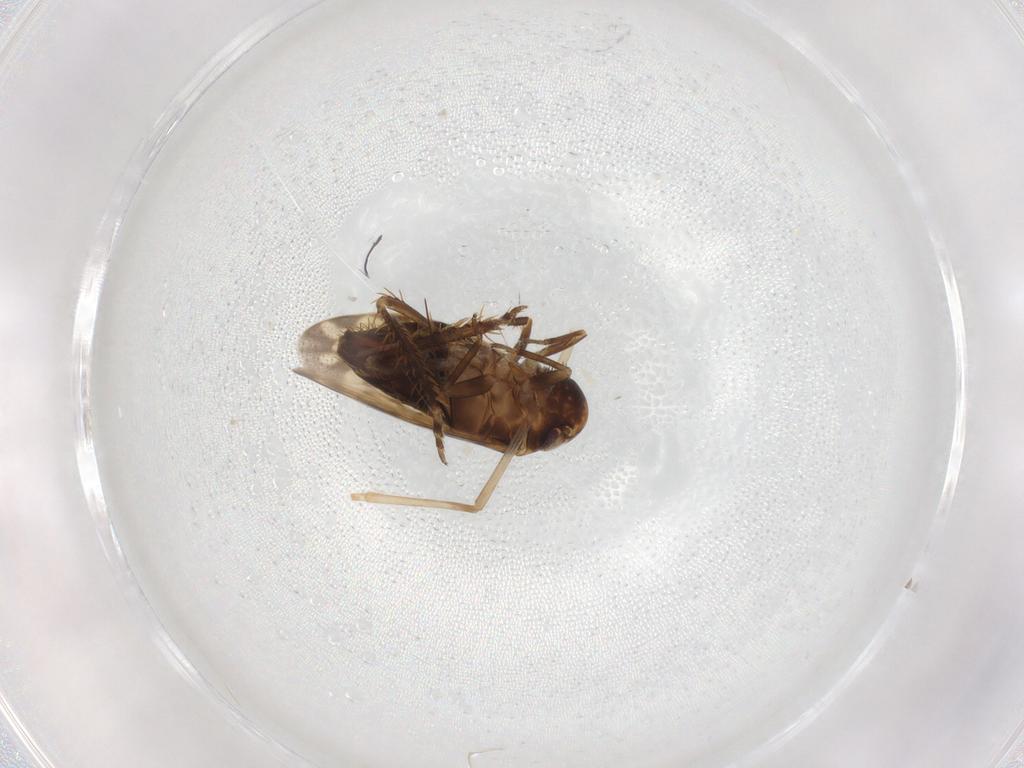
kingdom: Animalia
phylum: Arthropoda
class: Insecta
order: Hemiptera
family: Cicadellidae
